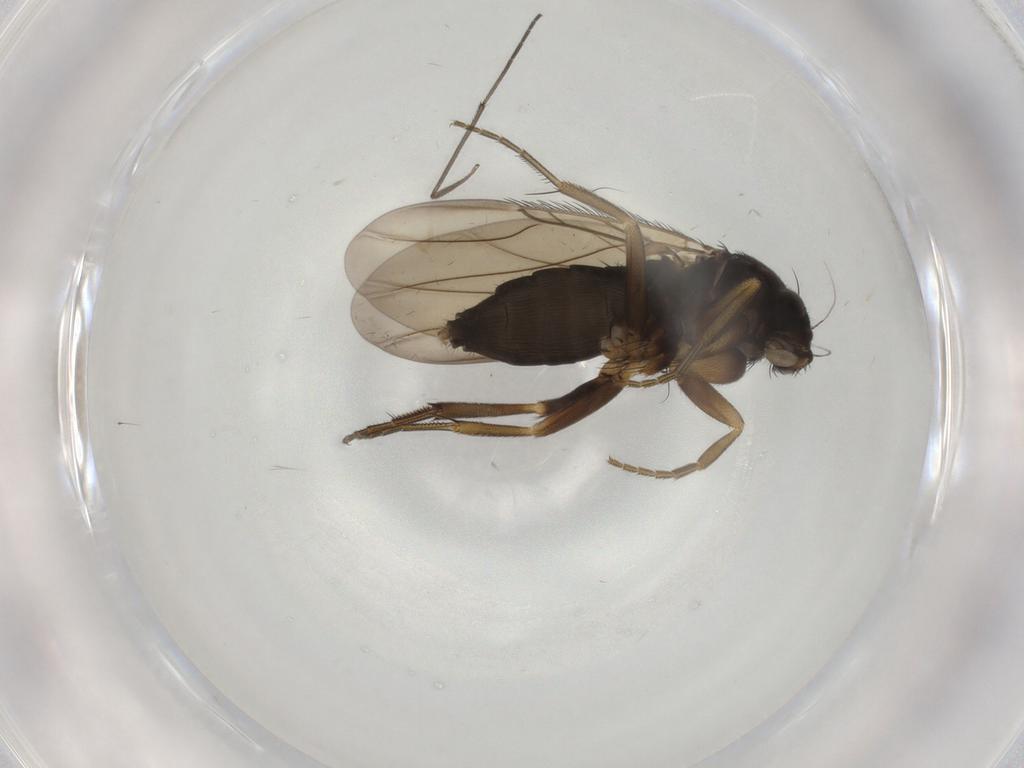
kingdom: Animalia
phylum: Arthropoda
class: Insecta
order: Diptera
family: Phoridae
